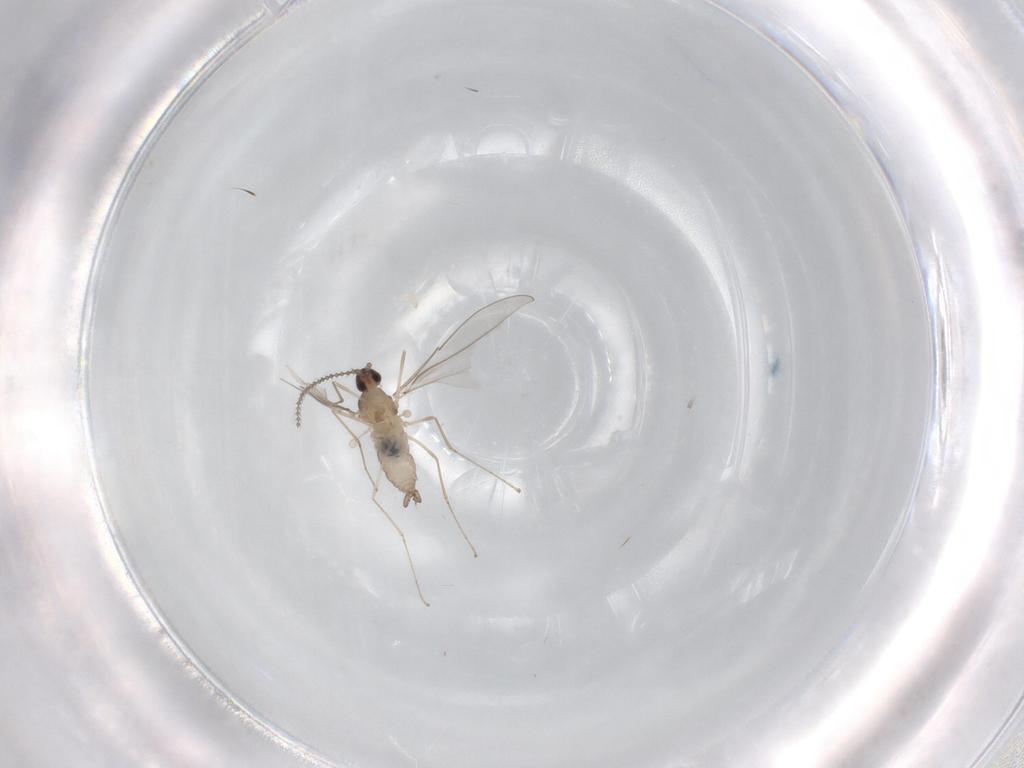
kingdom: Animalia
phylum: Arthropoda
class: Insecta
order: Diptera
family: Cecidomyiidae
